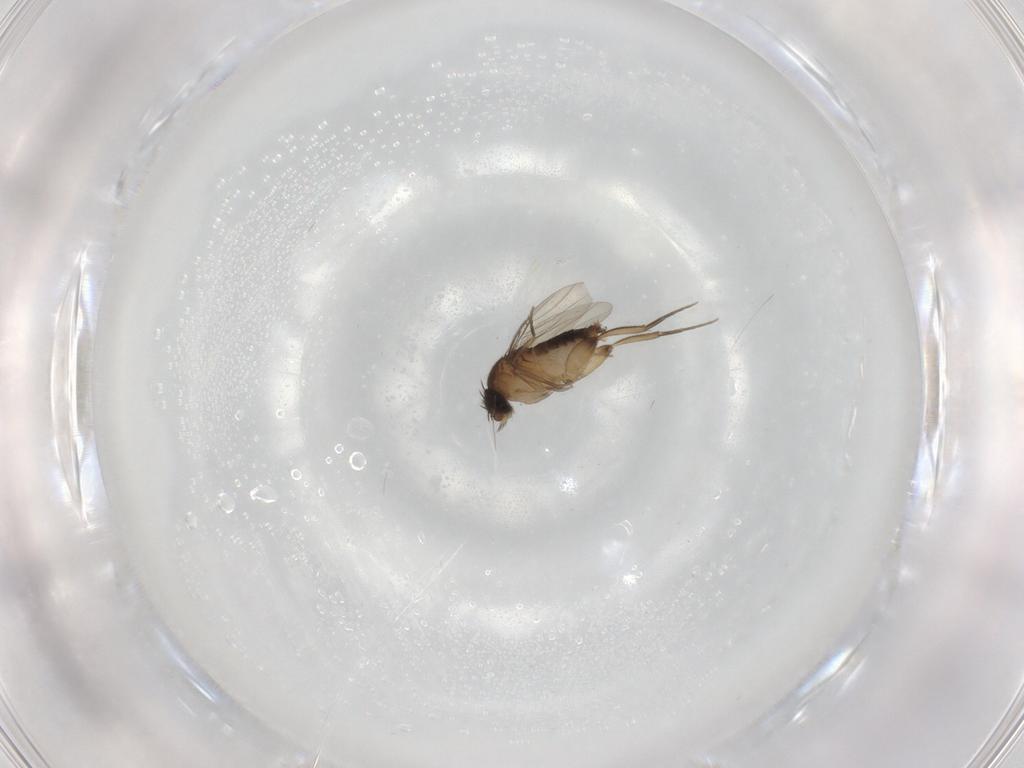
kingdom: Animalia
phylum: Arthropoda
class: Insecta
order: Diptera
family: Phoridae
